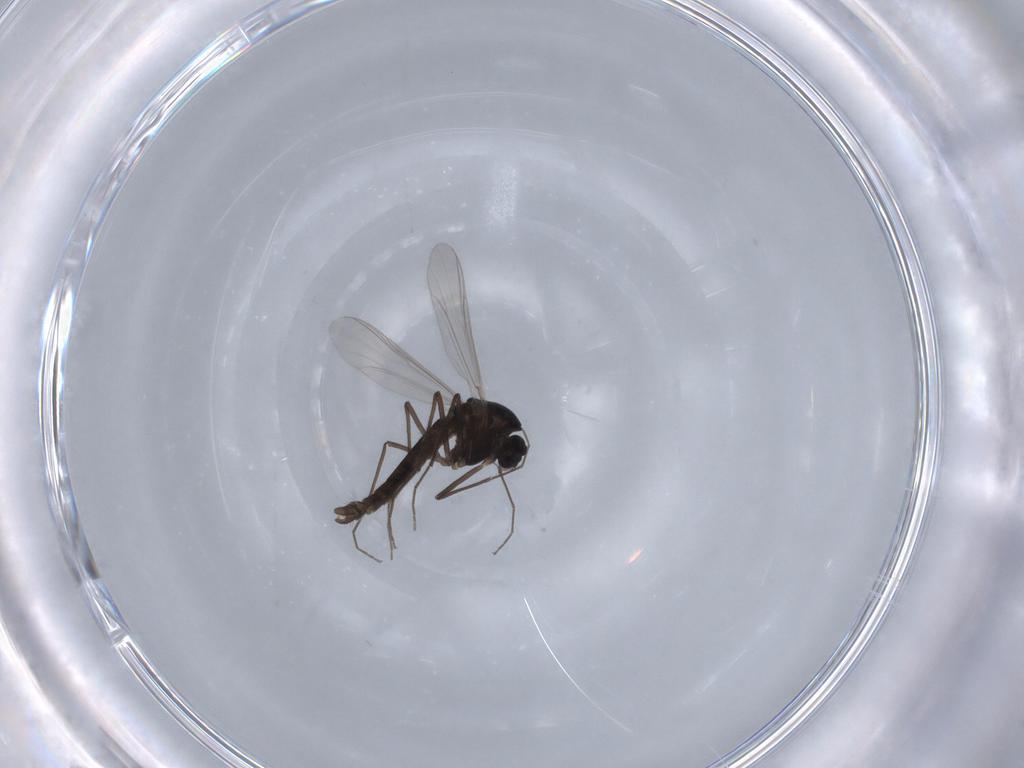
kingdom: Animalia
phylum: Arthropoda
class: Insecta
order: Diptera
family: Chironomidae
